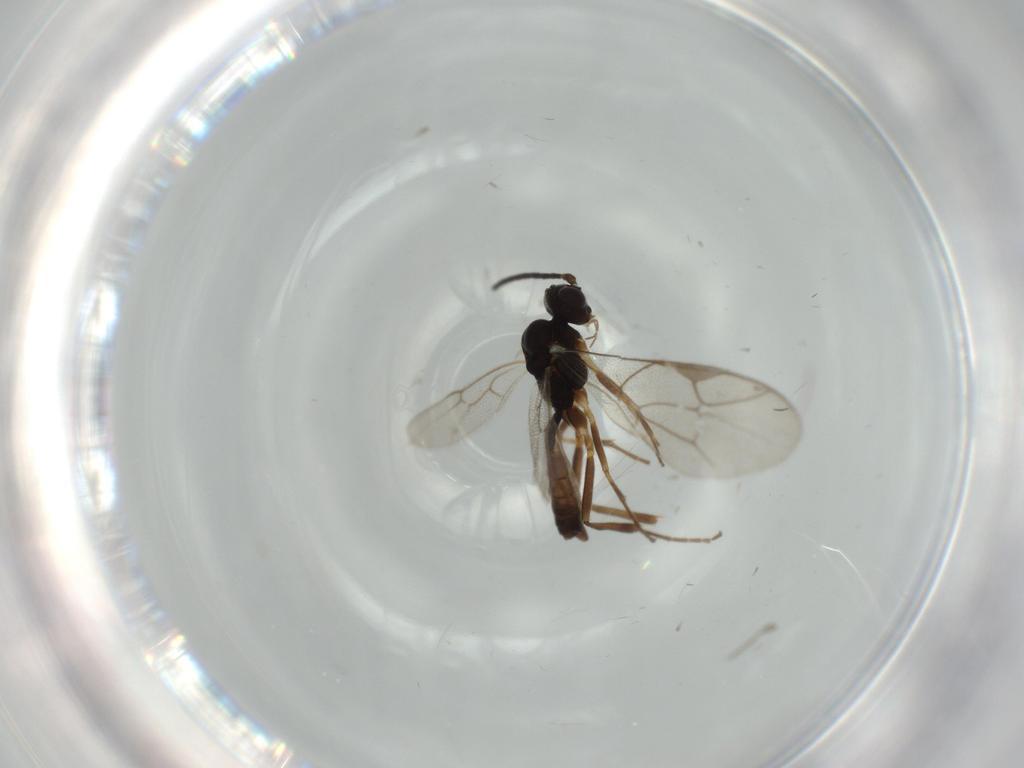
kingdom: Animalia
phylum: Arthropoda
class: Insecta
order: Hymenoptera
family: Ichneumonidae
